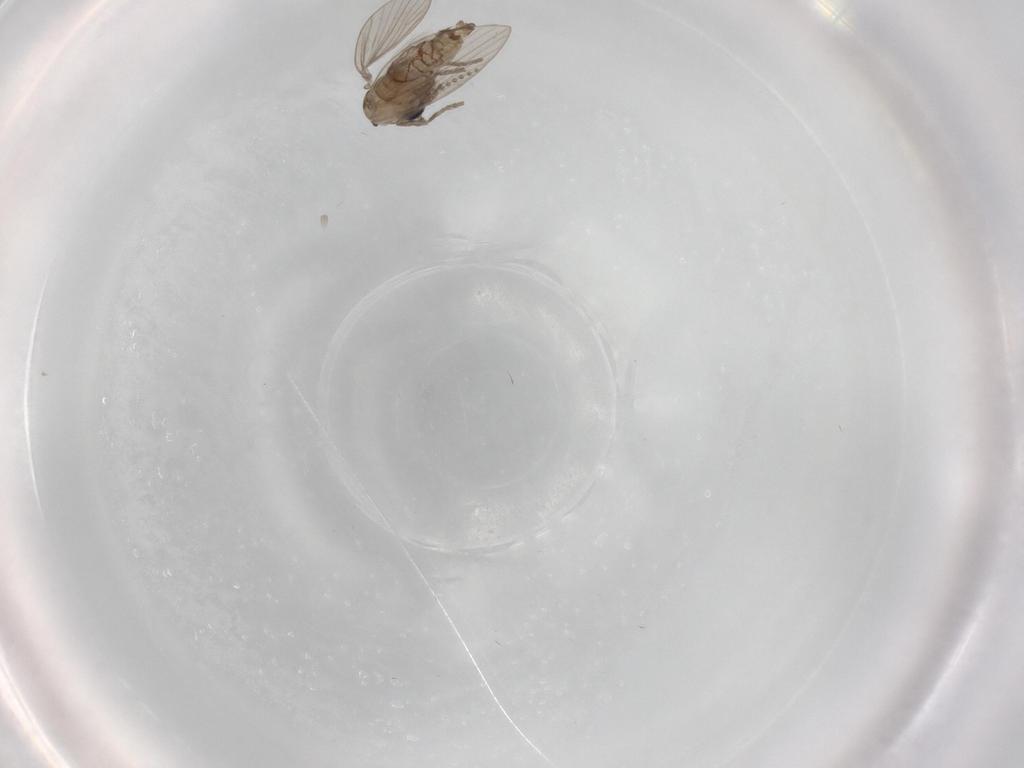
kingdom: Animalia
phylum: Arthropoda
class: Insecta
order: Diptera
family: Psychodidae
